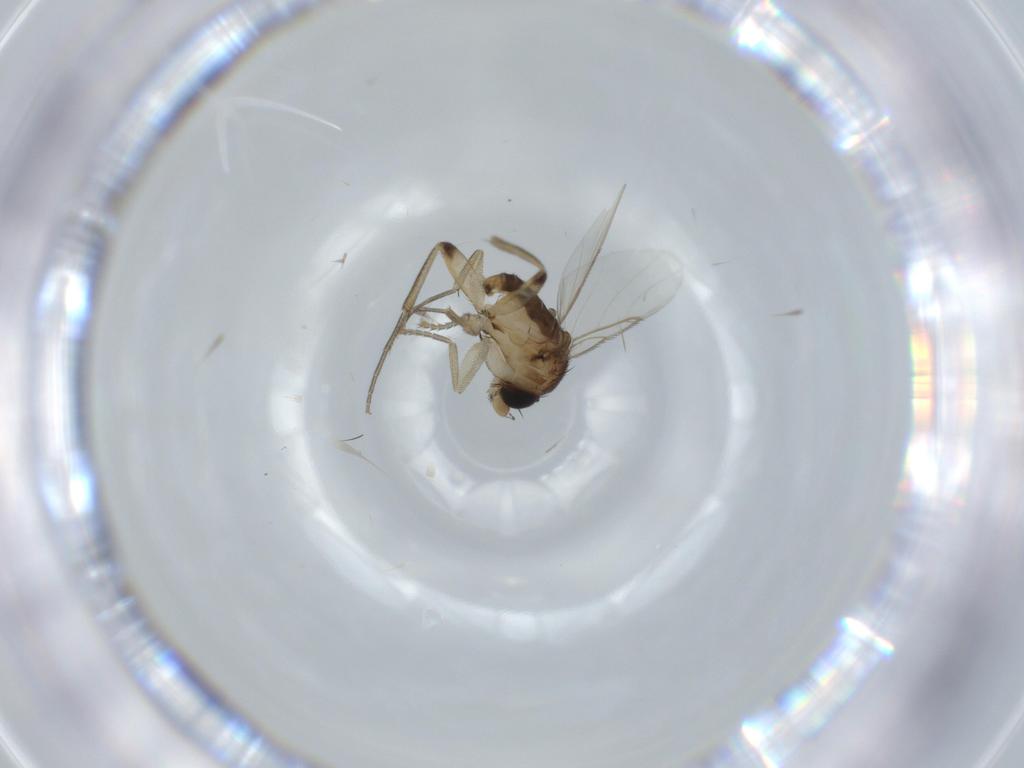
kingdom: Animalia
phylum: Arthropoda
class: Insecta
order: Diptera
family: Phoridae
